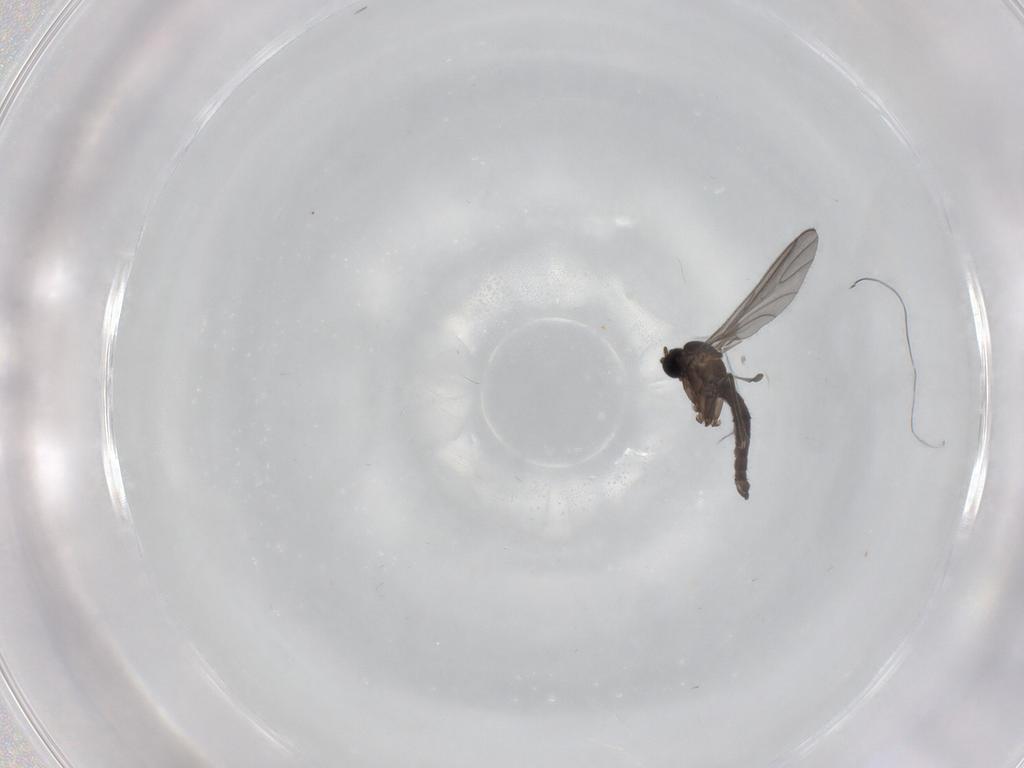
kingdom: Animalia
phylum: Arthropoda
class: Insecta
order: Diptera
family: Sciaridae
